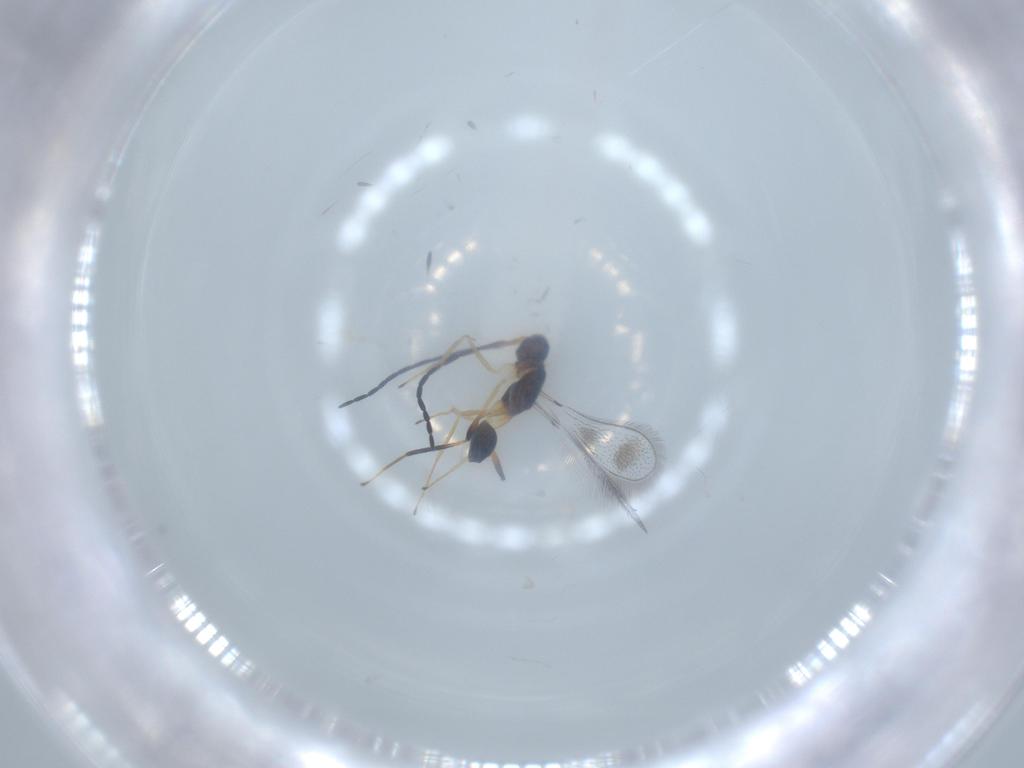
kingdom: Animalia
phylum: Arthropoda
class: Insecta
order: Hymenoptera
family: Mymaridae
